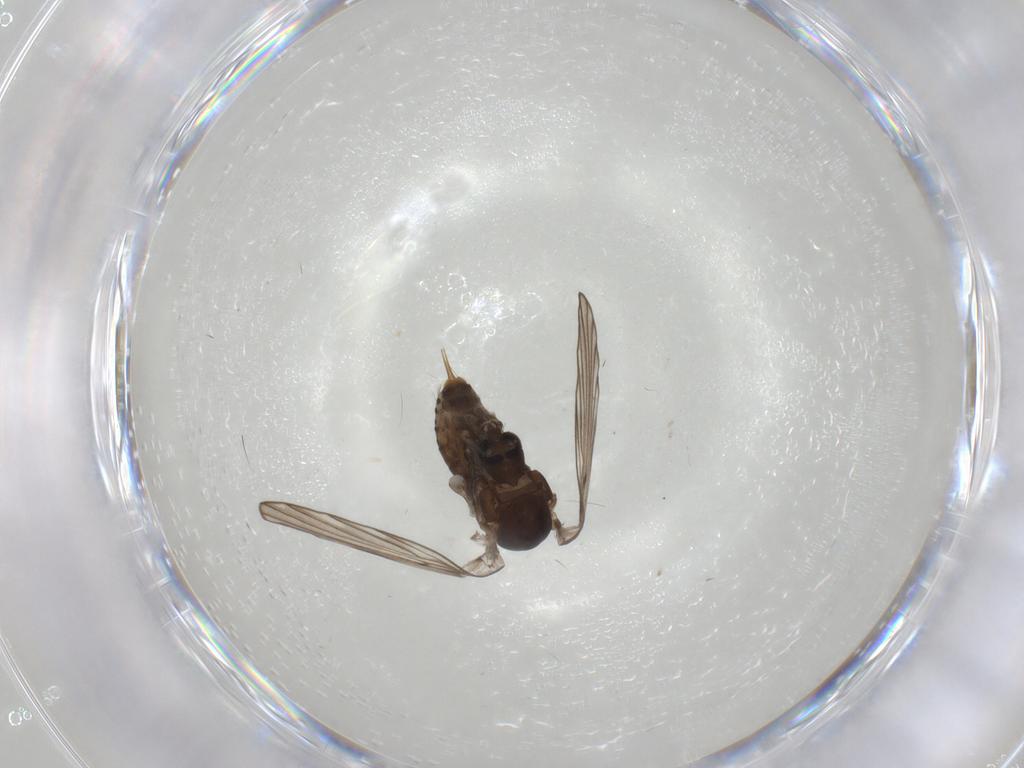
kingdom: Animalia
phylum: Arthropoda
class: Insecta
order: Diptera
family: Psychodidae
